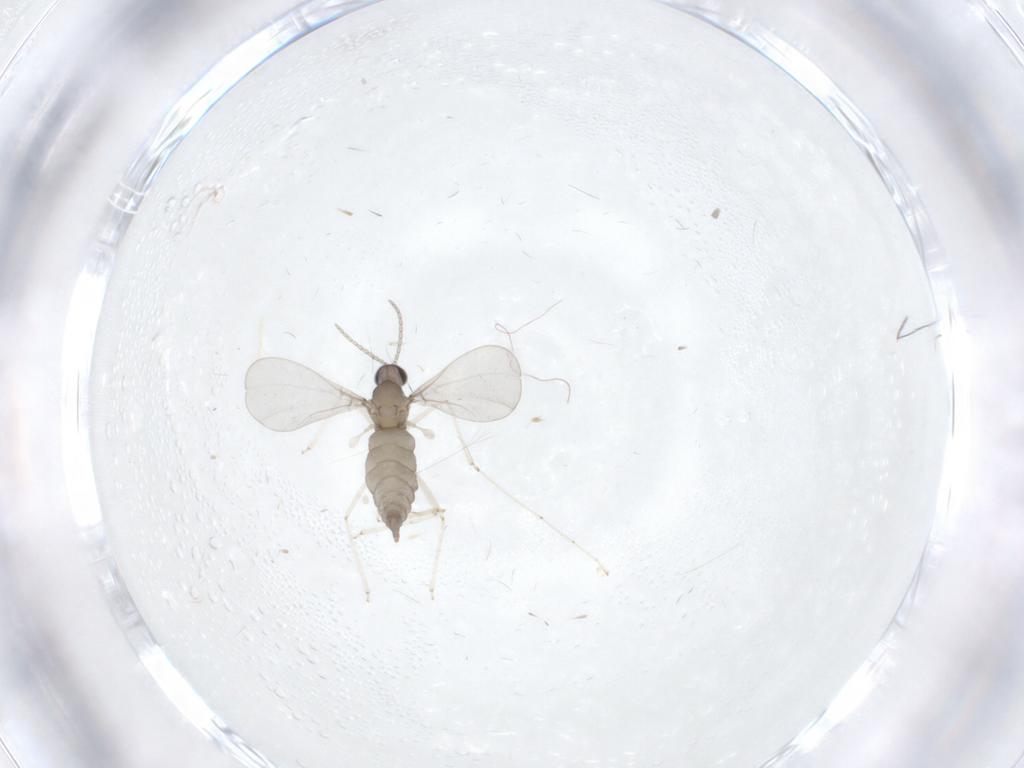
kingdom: Animalia
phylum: Arthropoda
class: Insecta
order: Diptera
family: Cecidomyiidae
